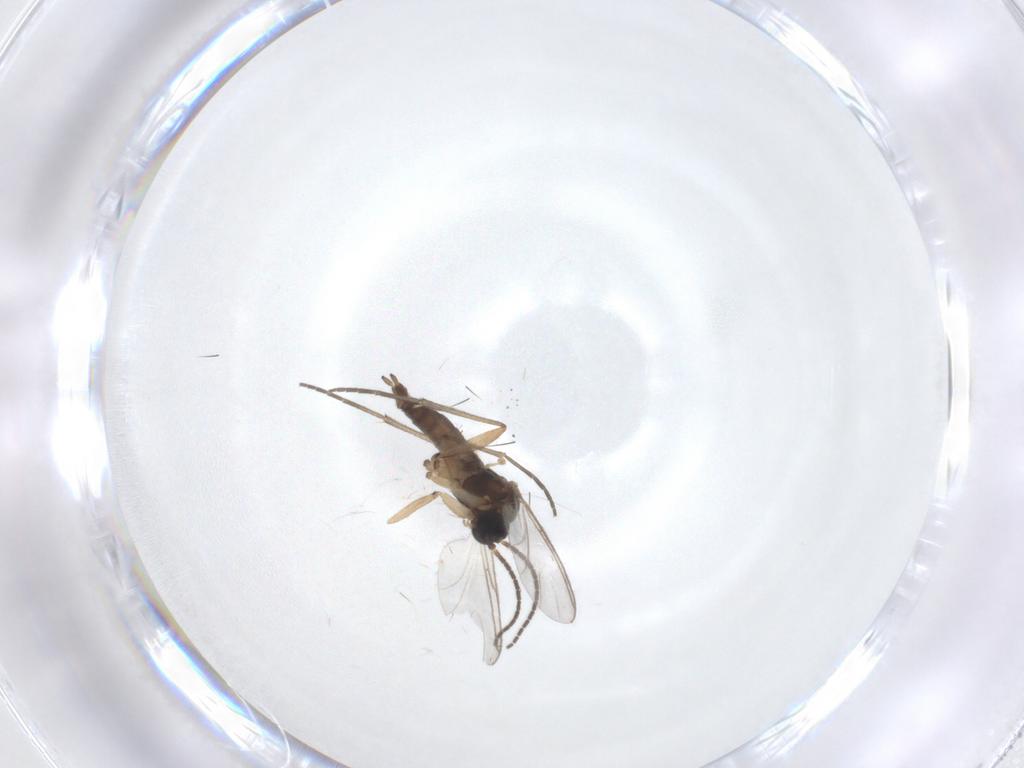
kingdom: Animalia
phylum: Arthropoda
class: Insecta
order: Diptera
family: Sciaridae
